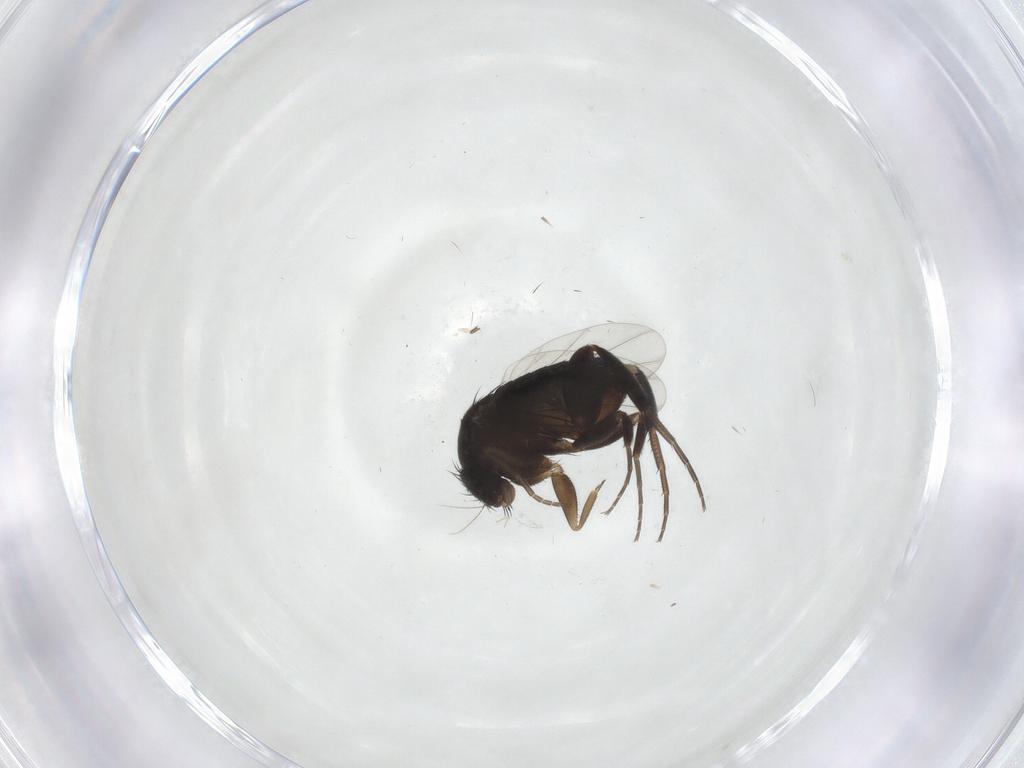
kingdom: Animalia
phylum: Arthropoda
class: Insecta
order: Diptera
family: Phoridae
